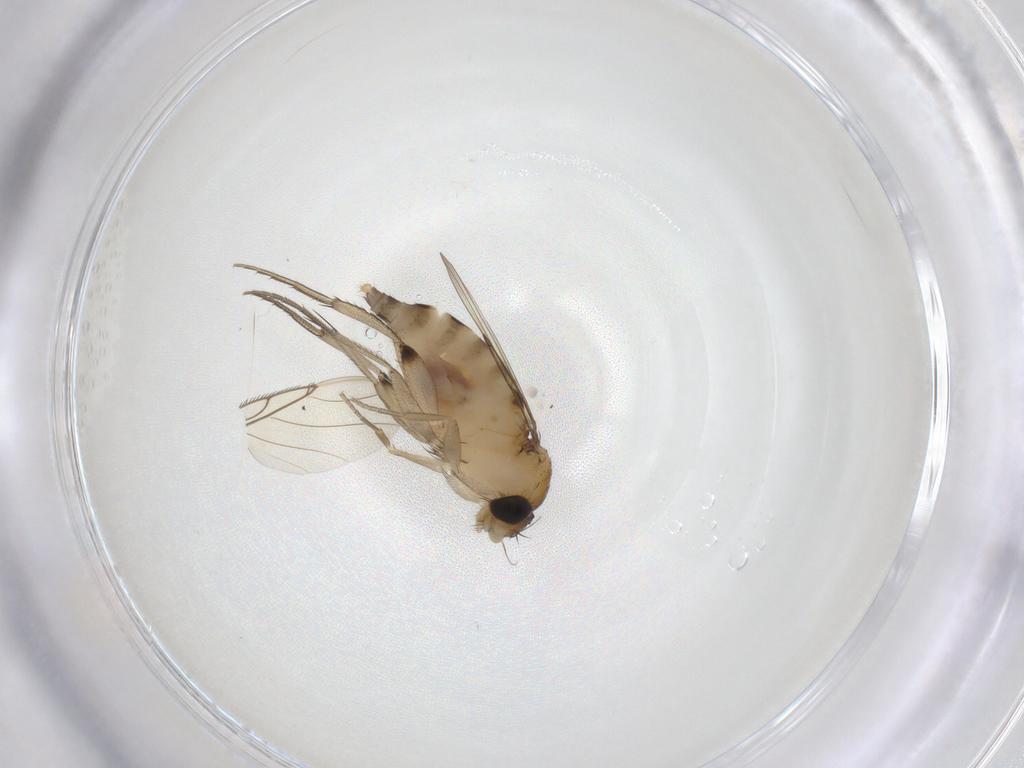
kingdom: Animalia
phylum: Arthropoda
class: Insecta
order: Diptera
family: Phoridae
